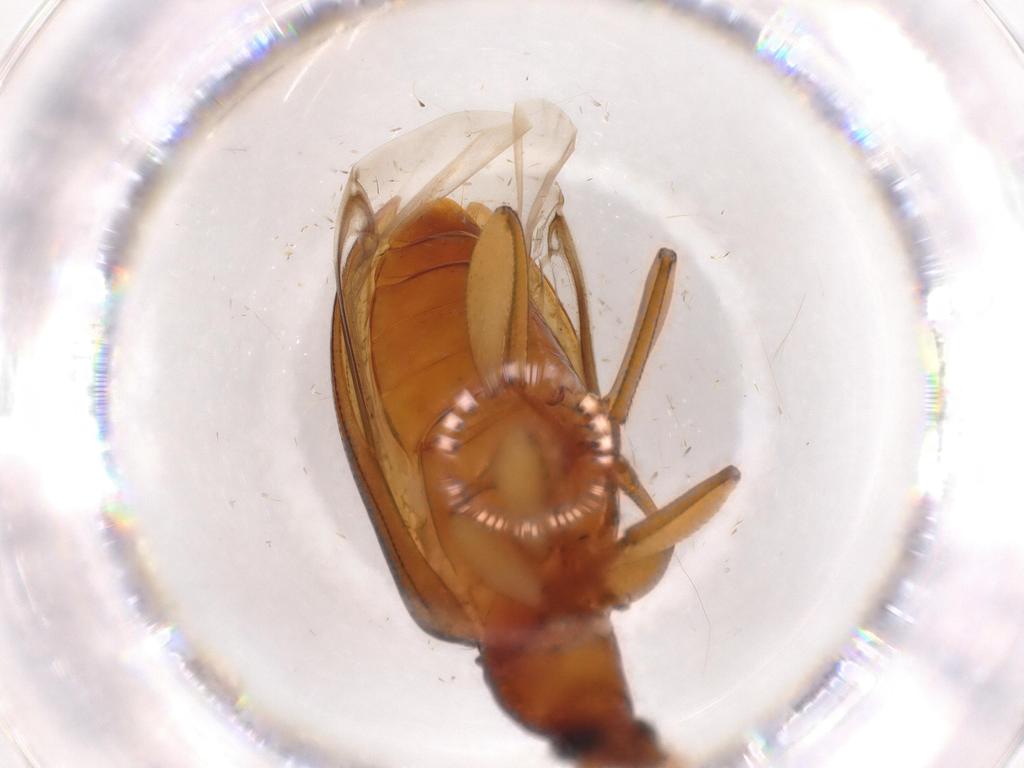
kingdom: Animalia
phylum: Arthropoda
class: Insecta
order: Coleoptera
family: Tenebrionidae
